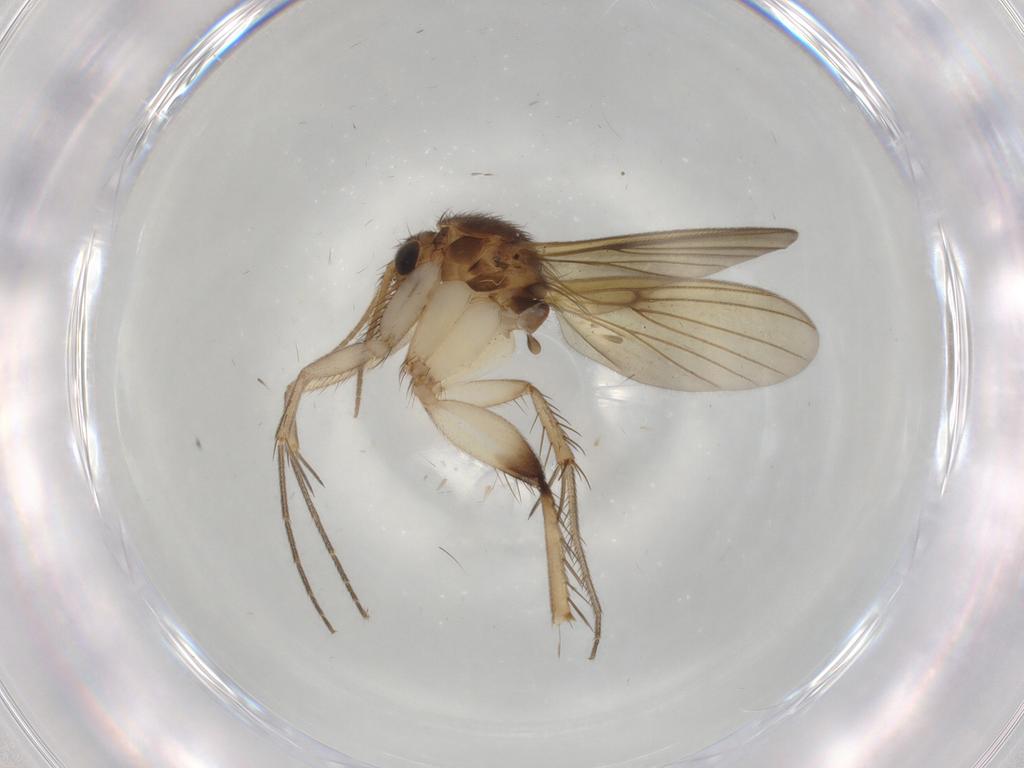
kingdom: Animalia
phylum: Arthropoda
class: Insecta
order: Diptera
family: Mycetophilidae
